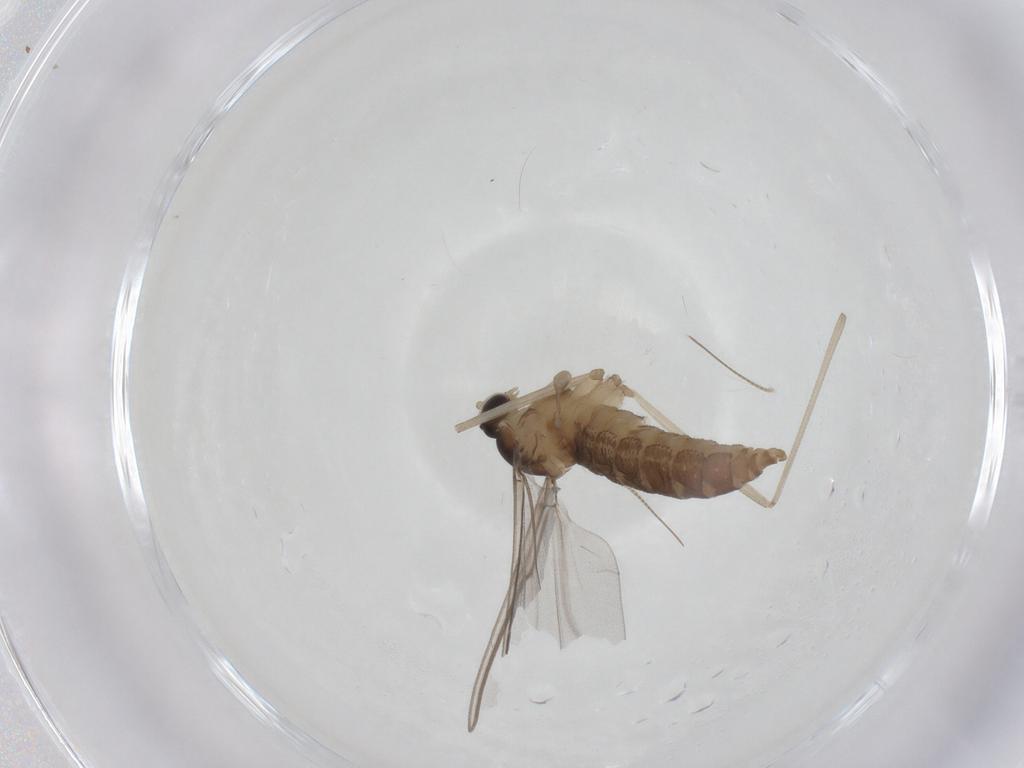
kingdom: Animalia
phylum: Arthropoda
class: Insecta
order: Diptera
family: Cecidomyiidae
